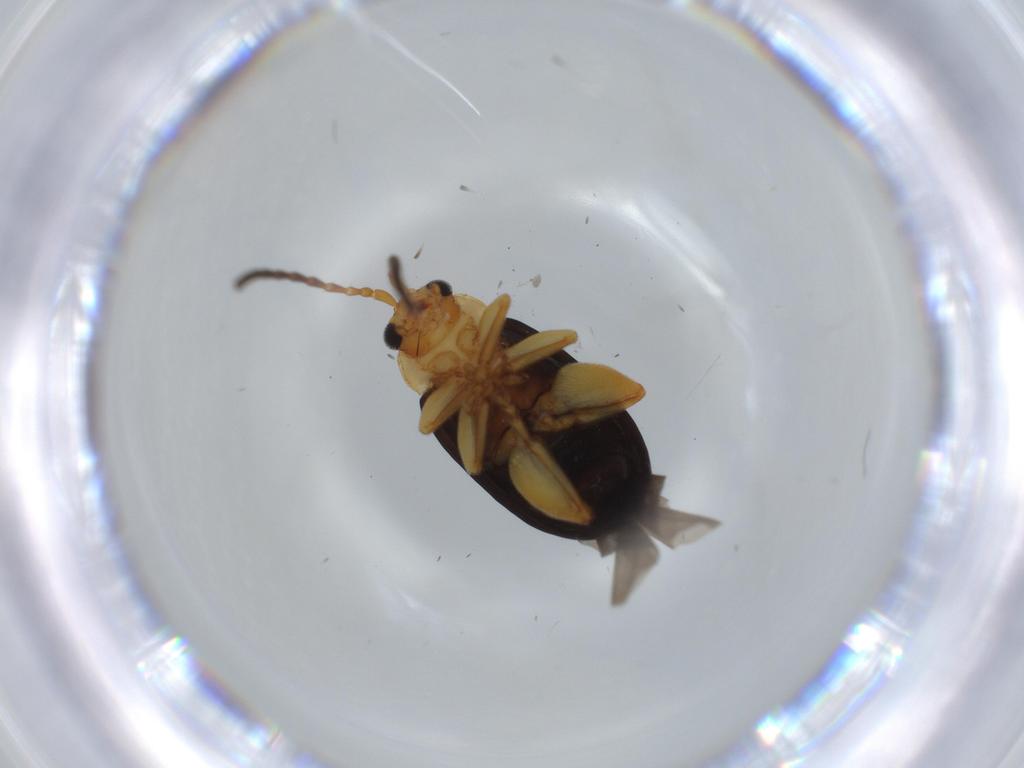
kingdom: Animalia
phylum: Arthropoda
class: Insecta
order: Coleoptera
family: Chrysomelidae
